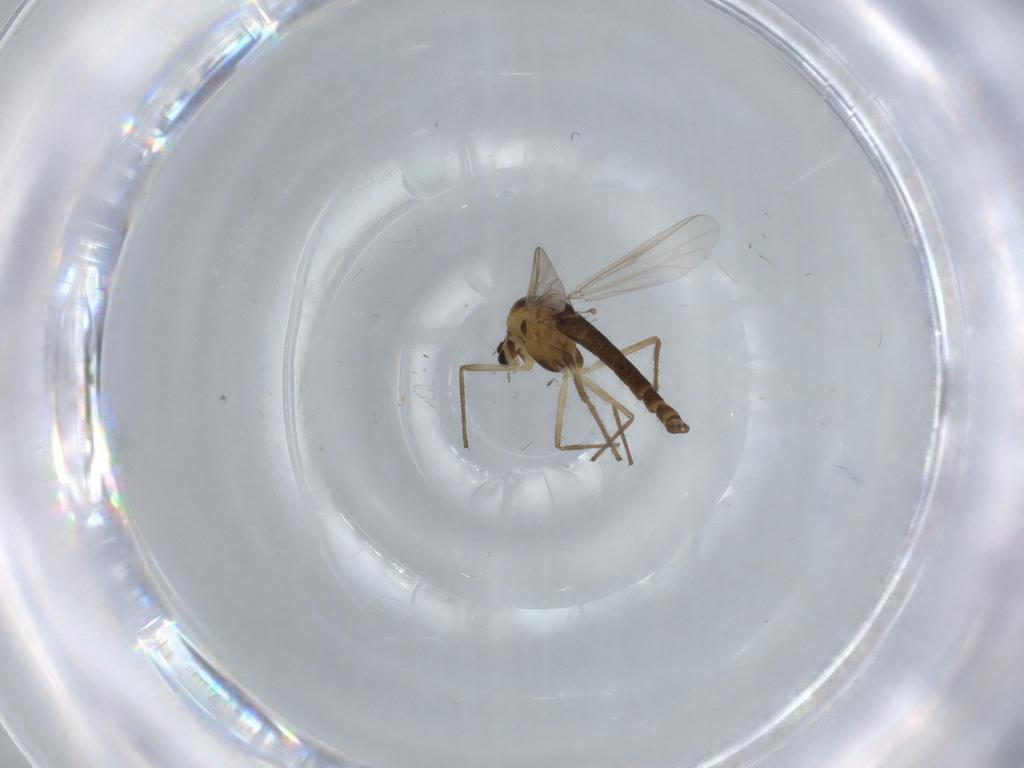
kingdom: Animalia
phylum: Arthropoda
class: Insecta
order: Diptera
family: Chironomidae
